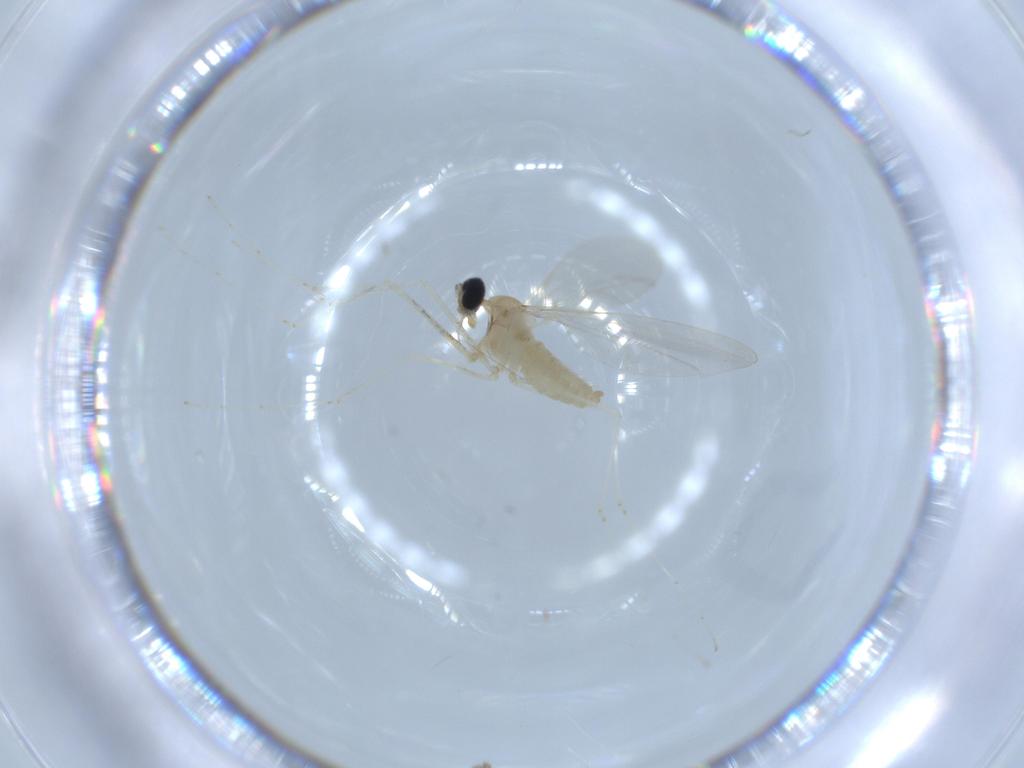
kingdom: Animalia
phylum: Arthropoda
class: Insecta
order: Diptera
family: Cecidomyiidae
